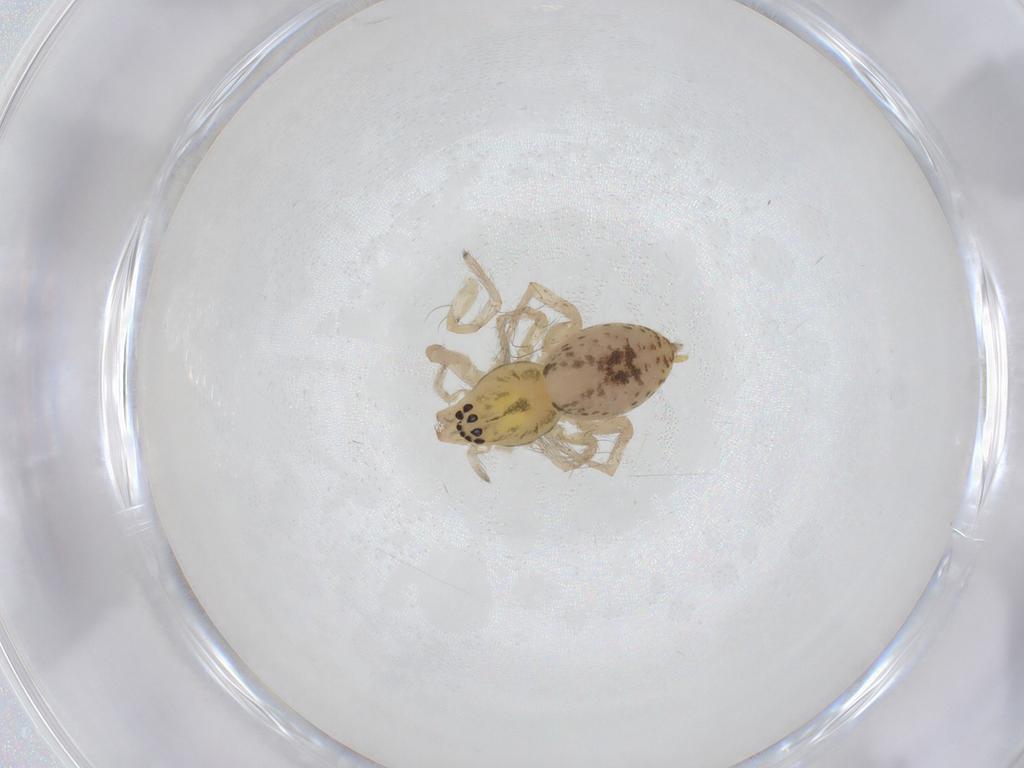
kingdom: Animalia
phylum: Arthropoda
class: Arachnida
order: Araneae
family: Anyphaenidae
